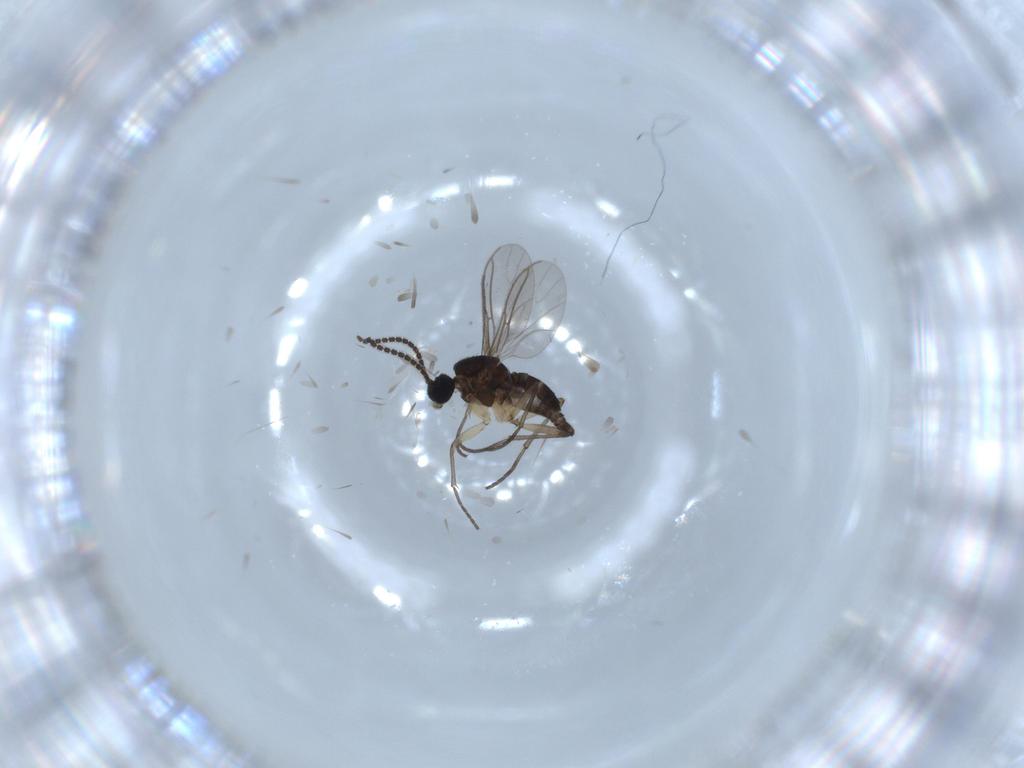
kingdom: Animalia
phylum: Arthropoda
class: Insecta
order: Diptera
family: Sciaridae
